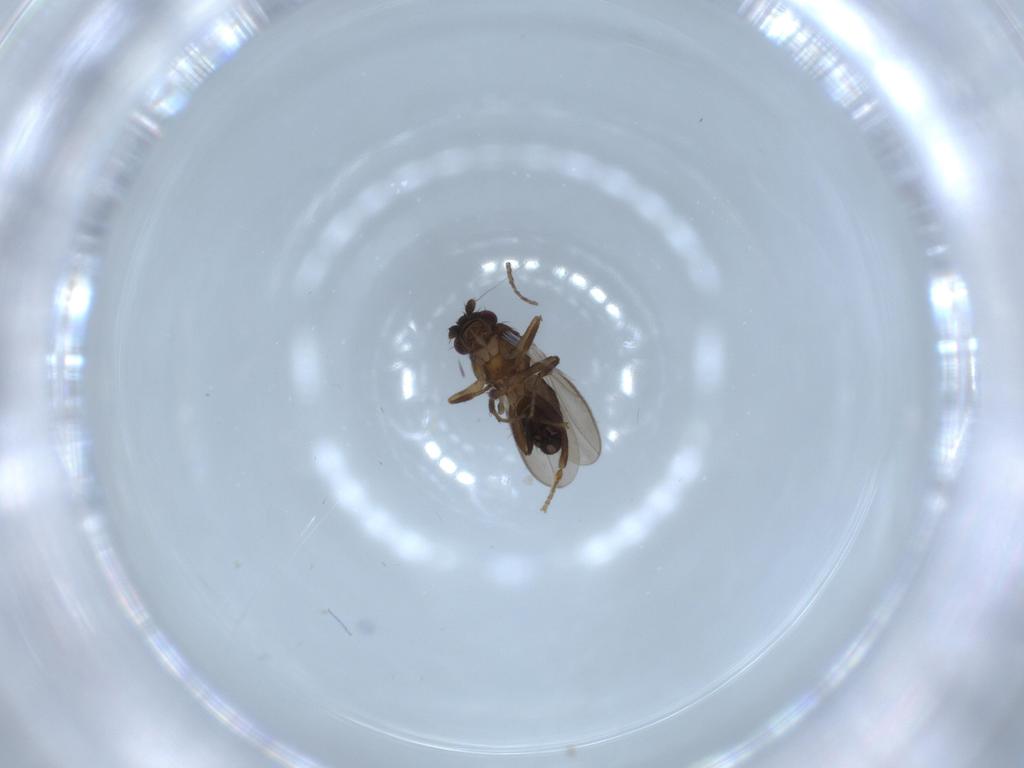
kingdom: Animalia
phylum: Arthropoda
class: Insecta
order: Diptera
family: Sphaeroceridae
